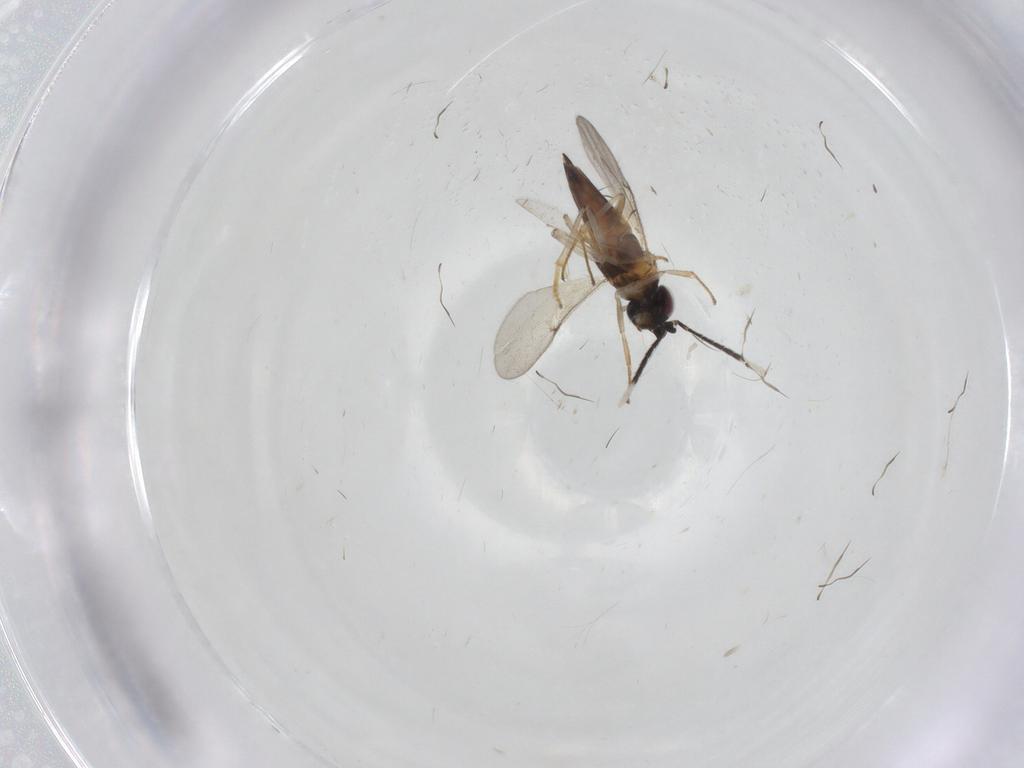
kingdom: Animalia
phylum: Arthropoda
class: Insecta
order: Hymenoptera
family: Encyrtidae
